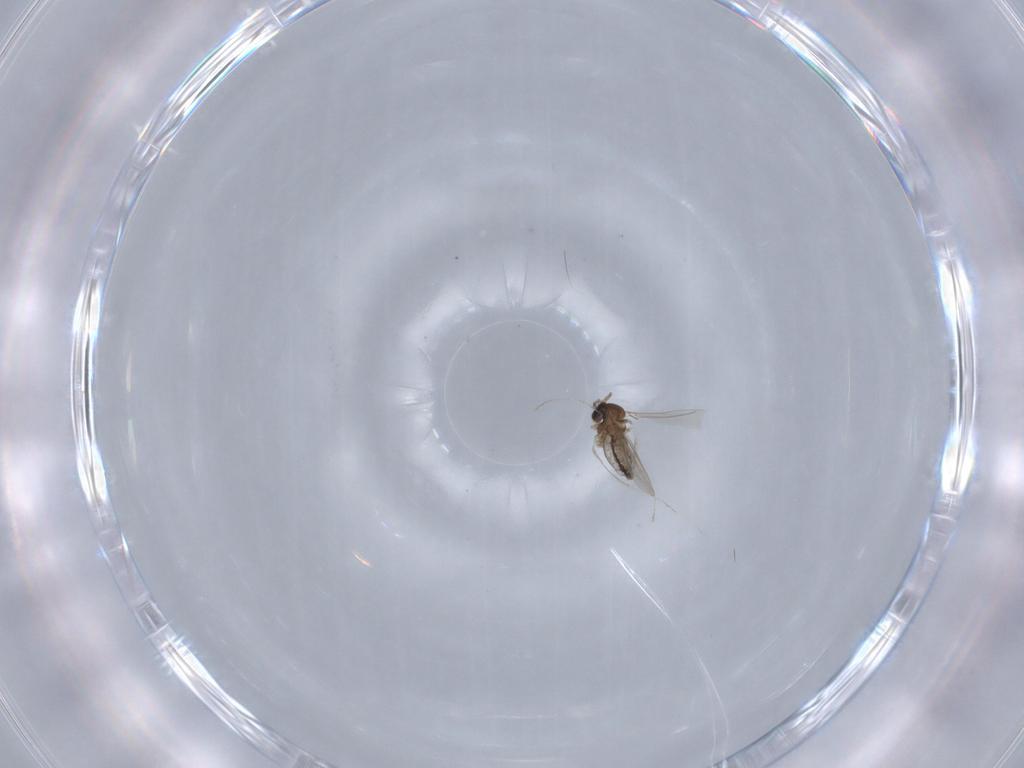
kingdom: Animalia
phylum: Arthropoda
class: Insecta
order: Diptera
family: Cecidomyiidae
